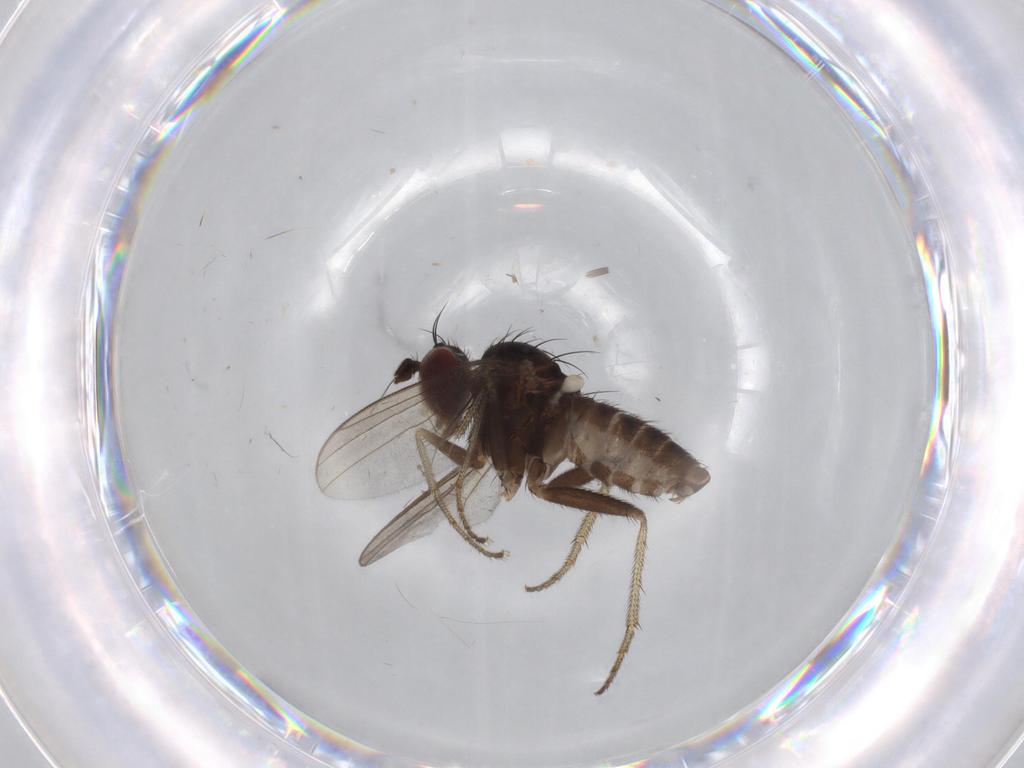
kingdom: Animalia
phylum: Arthropoda
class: Insecta
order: Diptera
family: Dolichopodidae
